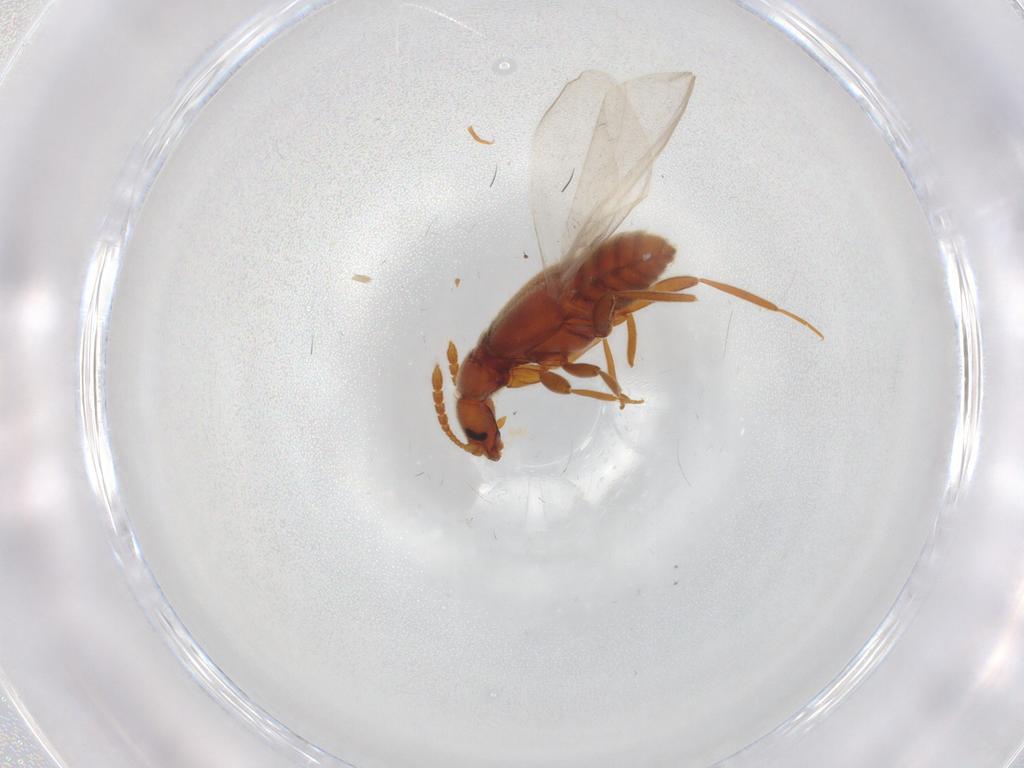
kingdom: Animalia
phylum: Arthropoda
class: Insecta
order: Coleoptera
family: Staphylinidae
